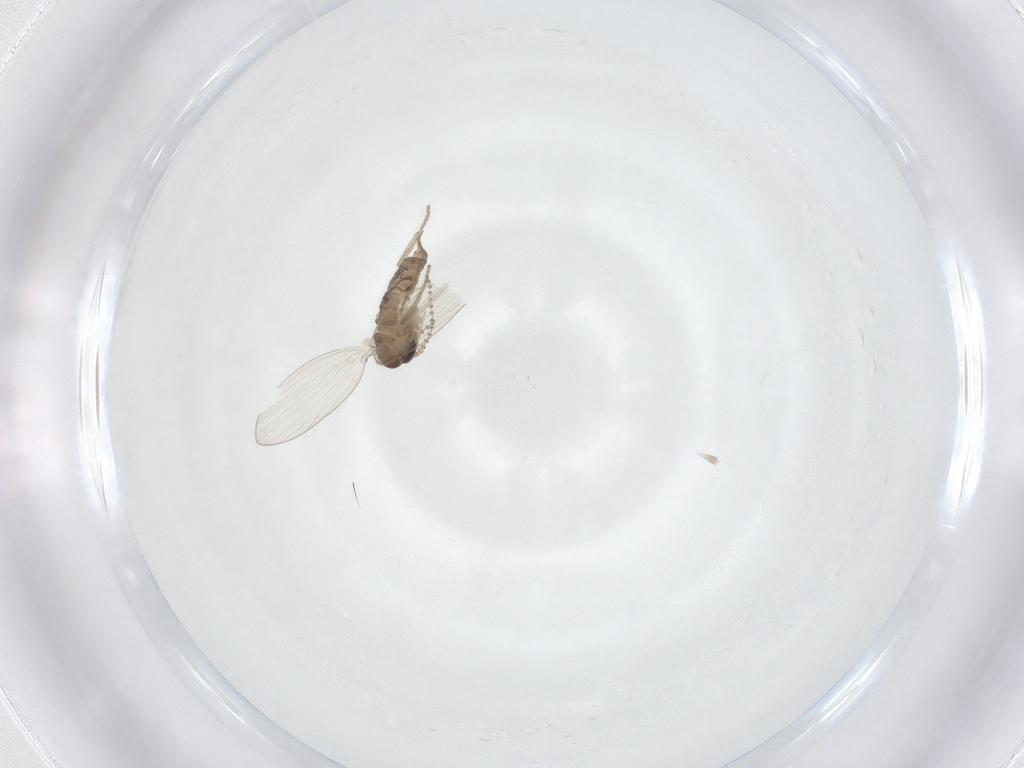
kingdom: Animalia
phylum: Arthropoda
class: Insecta
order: Diptera
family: Psychodidae
